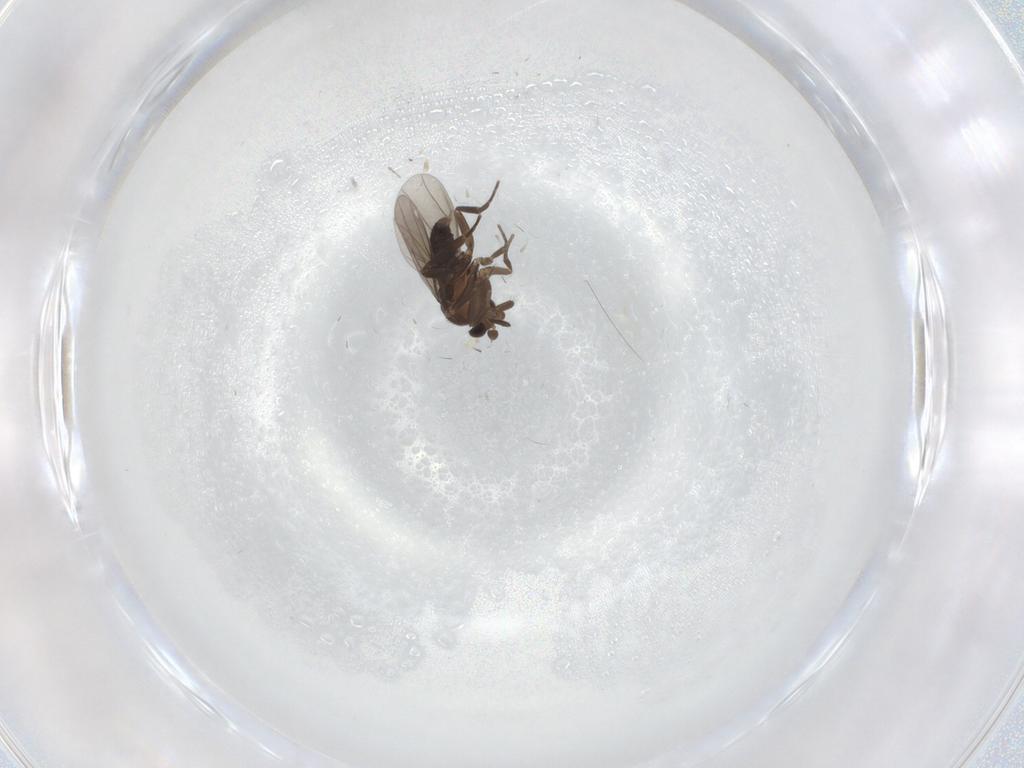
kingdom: Animalia
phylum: Arthropoda
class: Insecta
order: Diptera
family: Phoridae
